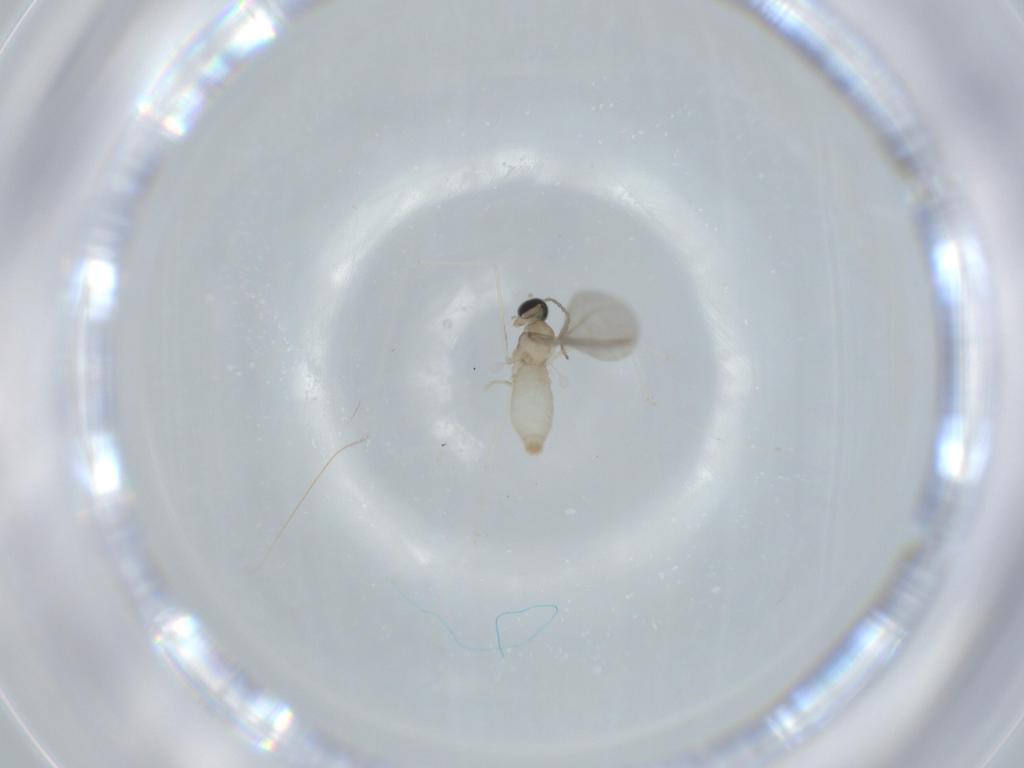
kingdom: Animalia
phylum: Arthropoda
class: Insecta
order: Diptera
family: Cecidomyiidae
